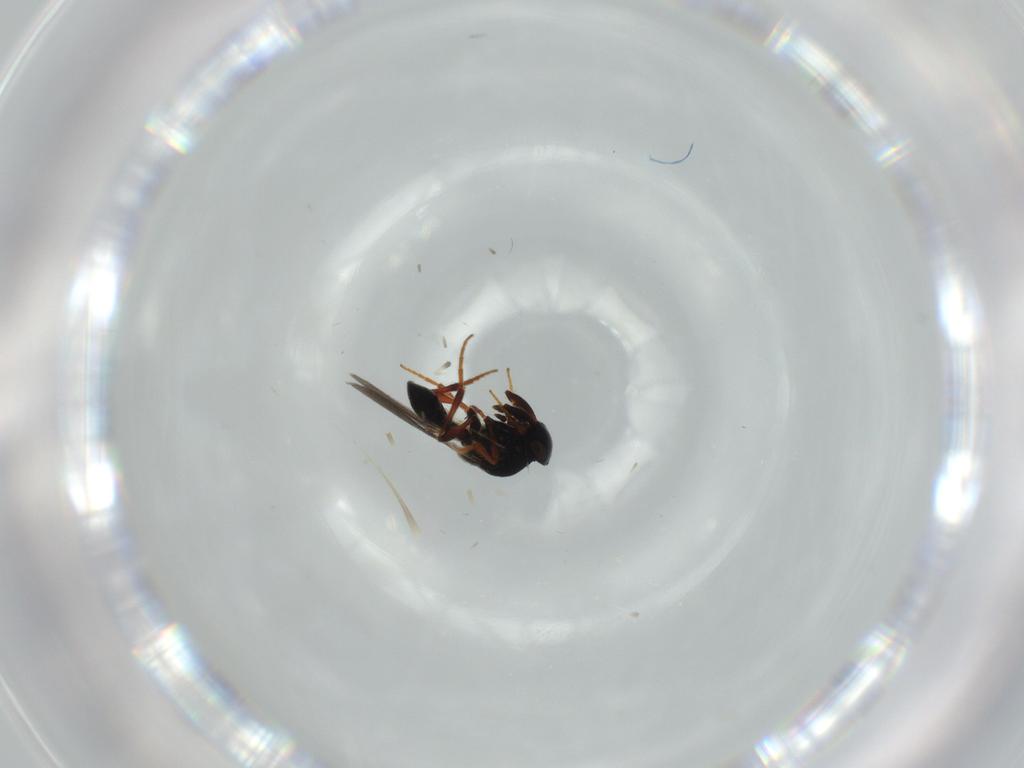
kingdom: Animalia
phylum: Arthropoda
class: Insecta
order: Hymenoptera
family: Platygastridae
